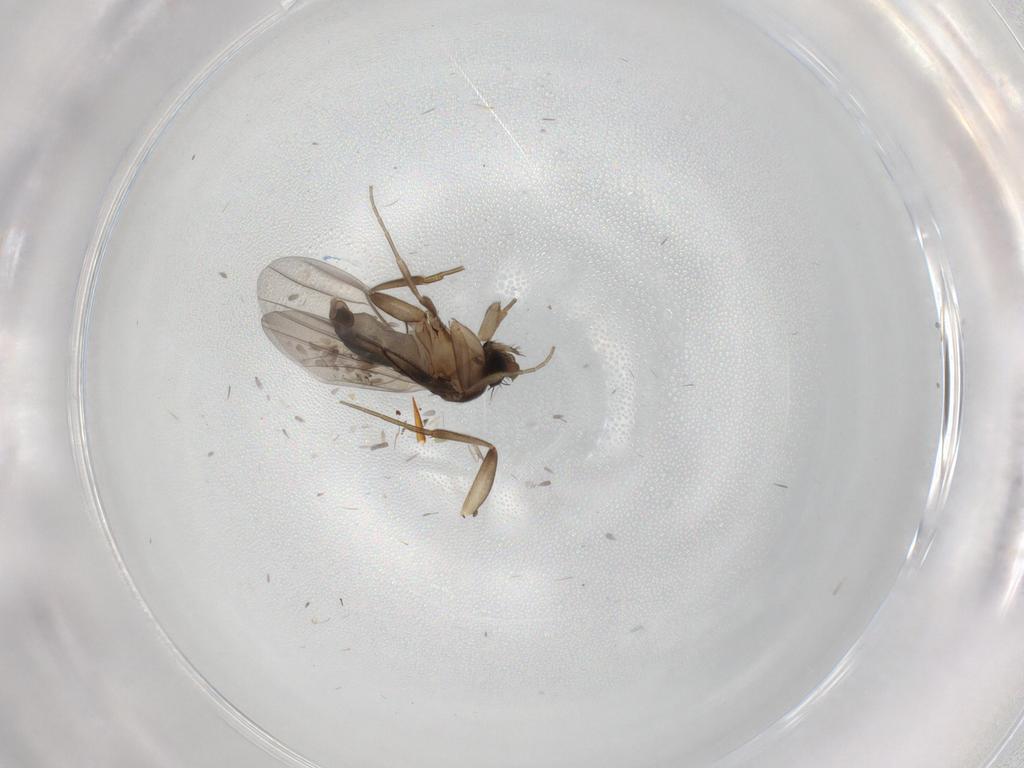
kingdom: Animalia
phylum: Arthropoda
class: Insecta
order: Diptera
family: Phoridae
